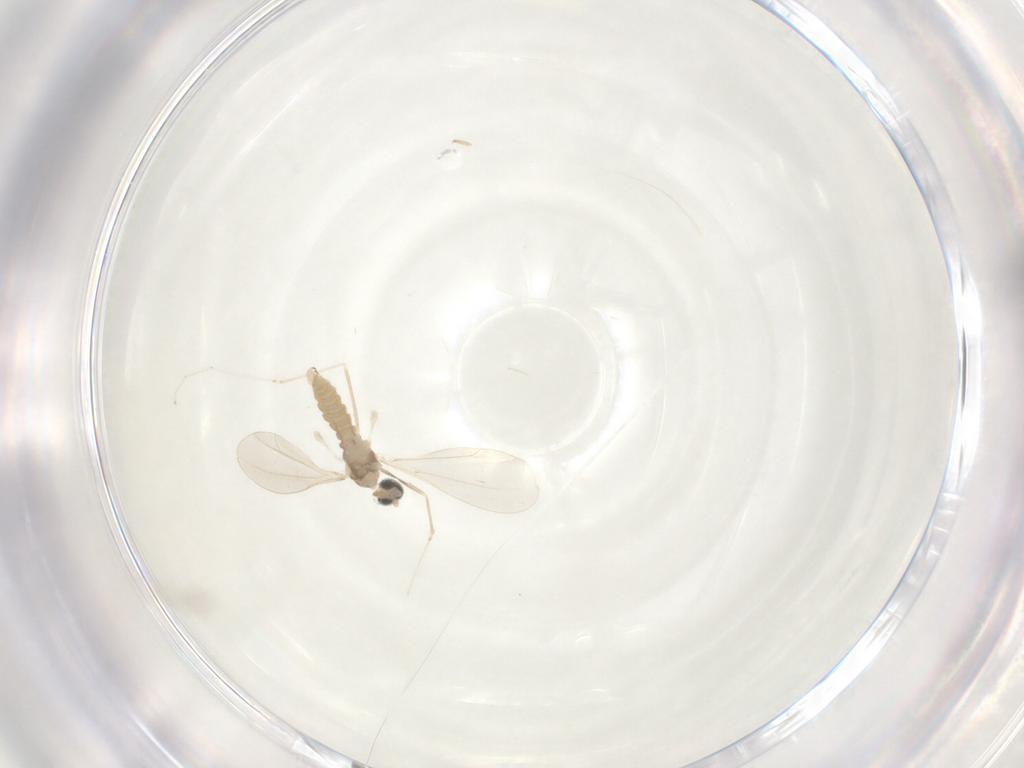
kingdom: Animalia
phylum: Arthropoda
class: Insecta
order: Diptera
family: Cecidomyiidae
